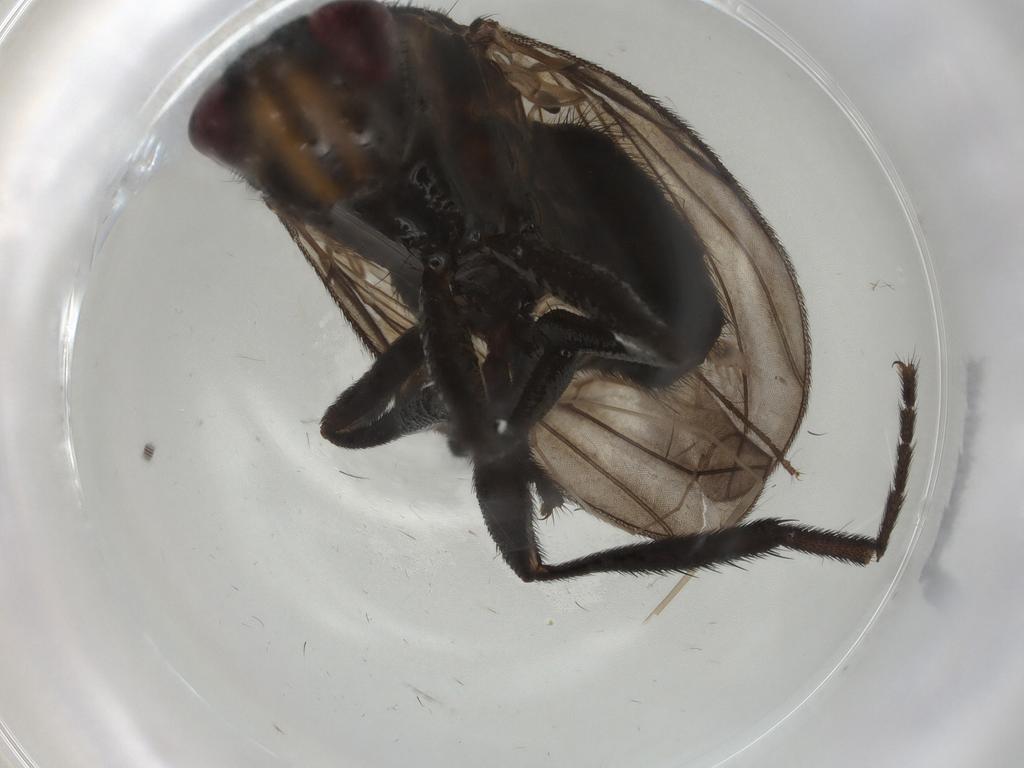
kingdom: Animalia
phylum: Arthropoda
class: Insecta
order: Diptera
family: Limoniidae
